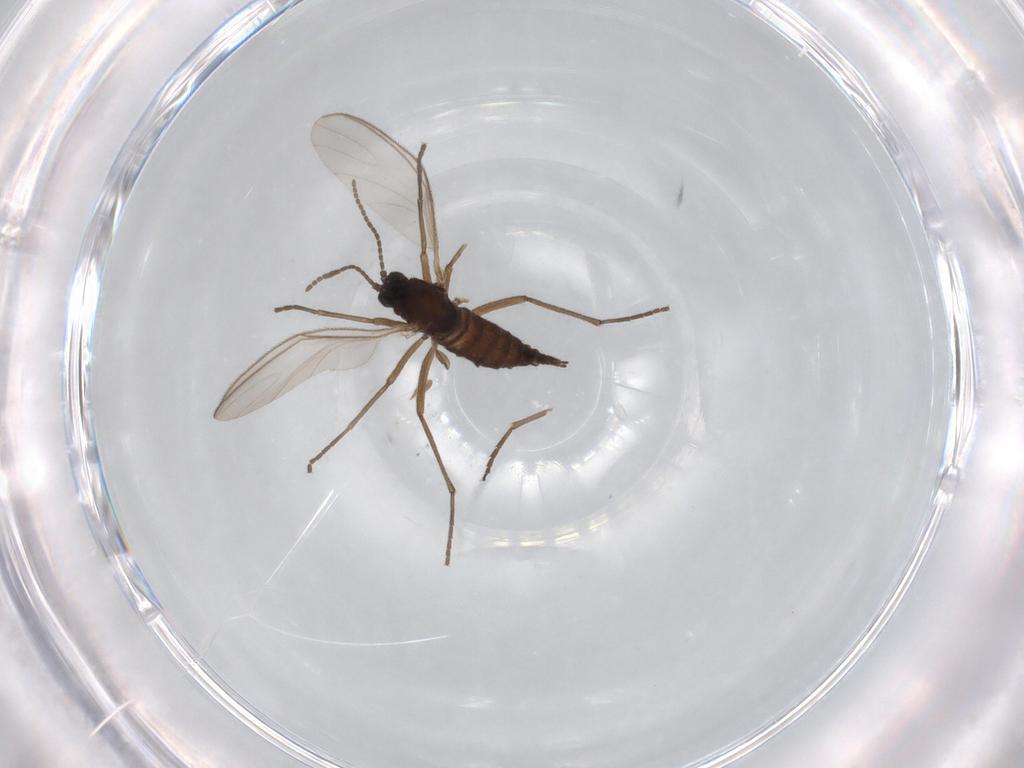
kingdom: Animalia
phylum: Arthropoda
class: Insecta
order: Diptera
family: Sciaridae
